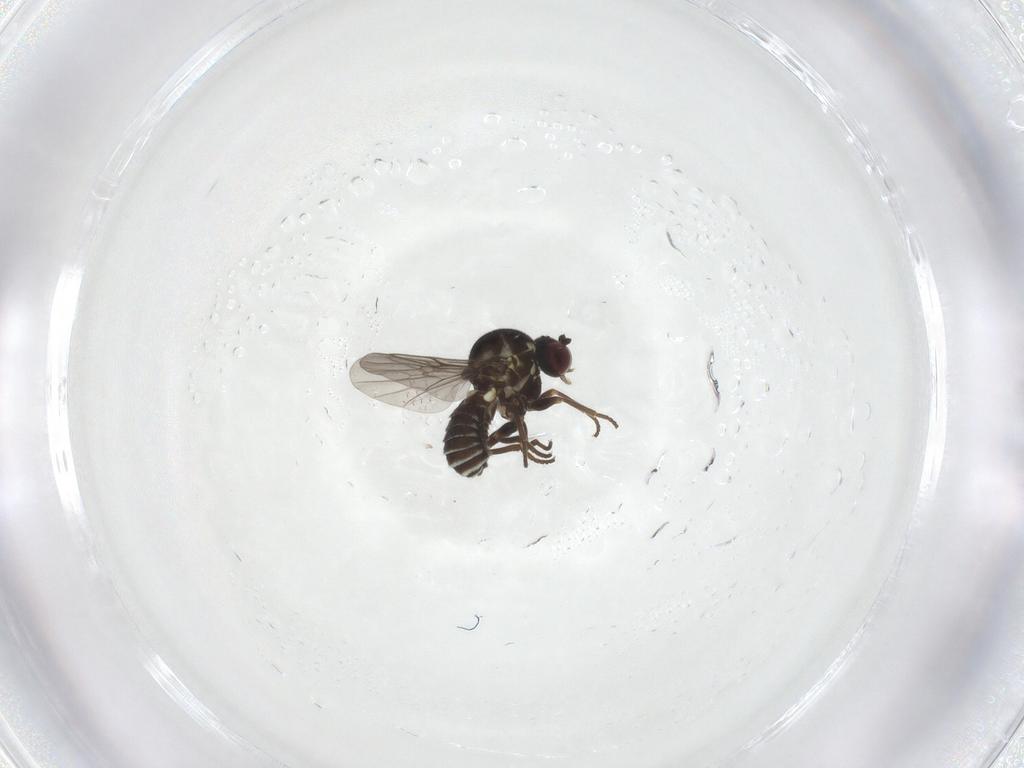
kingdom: Animalia
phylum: Arthropoda
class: Insecta
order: Diptera
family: Bombyliidae
